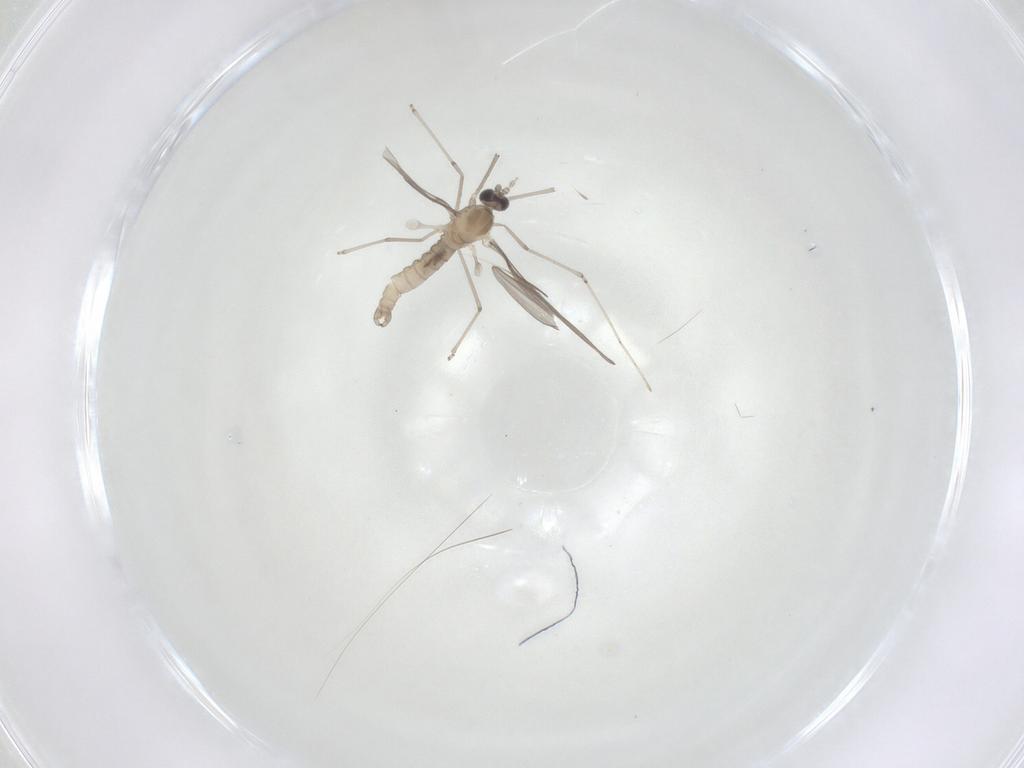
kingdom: Animalia
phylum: Arthropoda
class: Insecta
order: Diptera
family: Cecidomyiidae
